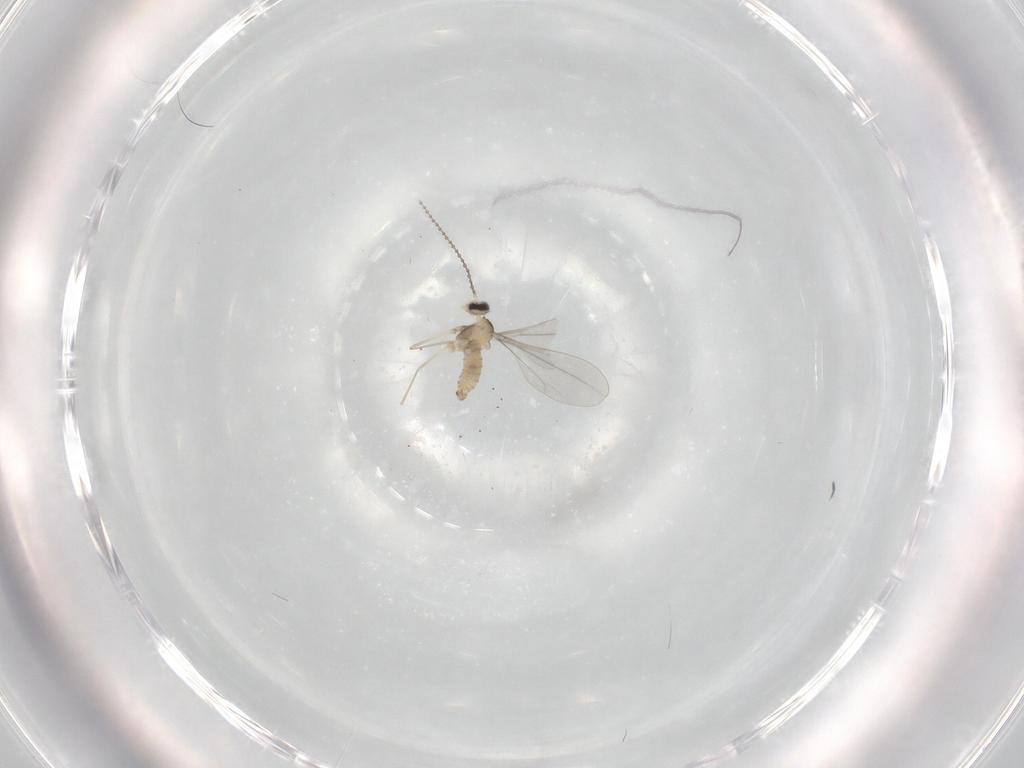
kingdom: Animalia
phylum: Arthropoda
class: Insecta
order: Diptera
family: Cecidomyiidae
